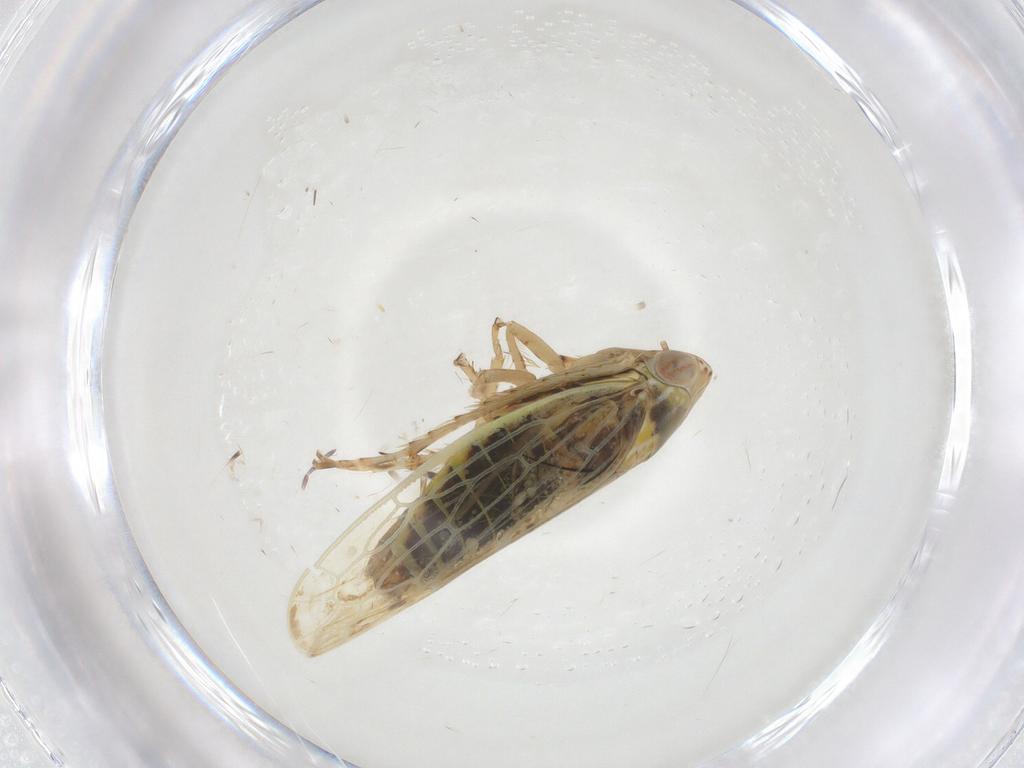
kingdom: Animalia
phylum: Arthropoda
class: Insecta
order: Hemiptera
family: Cicadellidae
